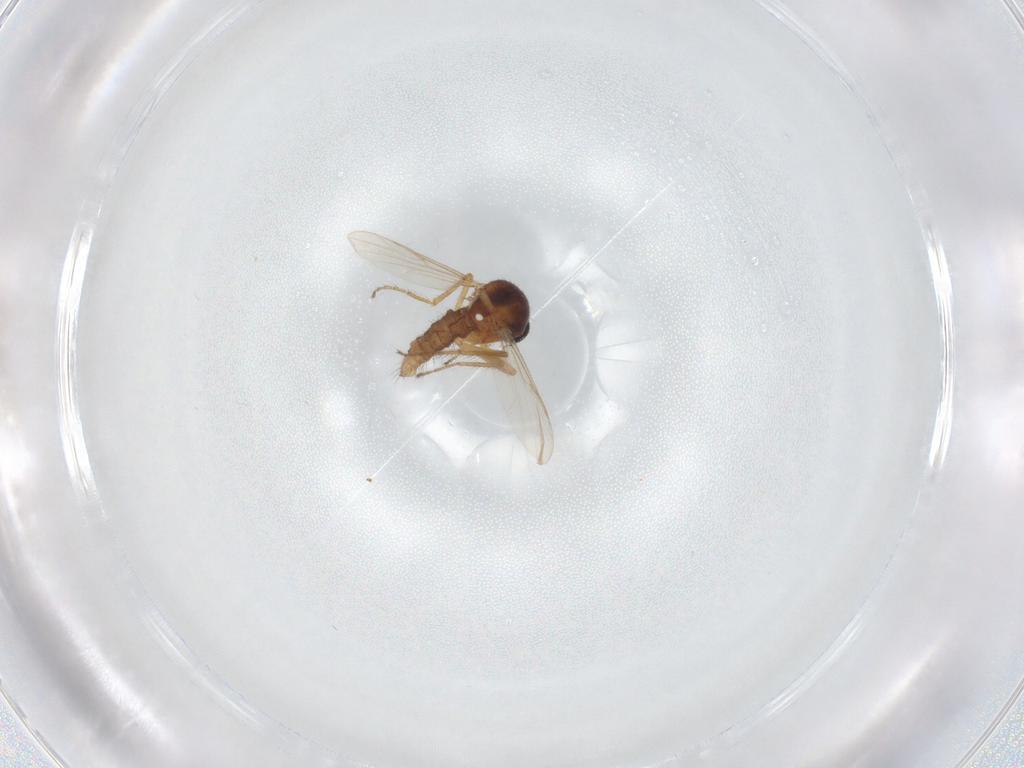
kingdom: Animalia
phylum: Arthropoda
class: Insecta
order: Diptera
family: Ceratopogonidae
